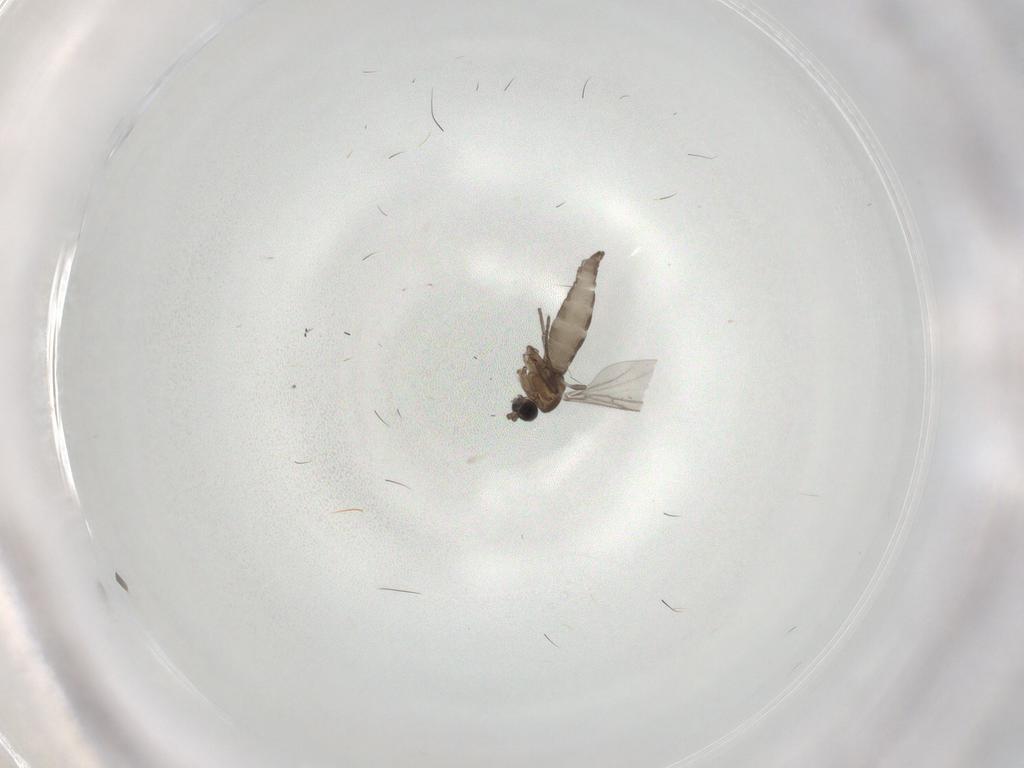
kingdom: Animalia
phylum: Arthropoda
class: Insecta
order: Diptera
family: Sciaridae
